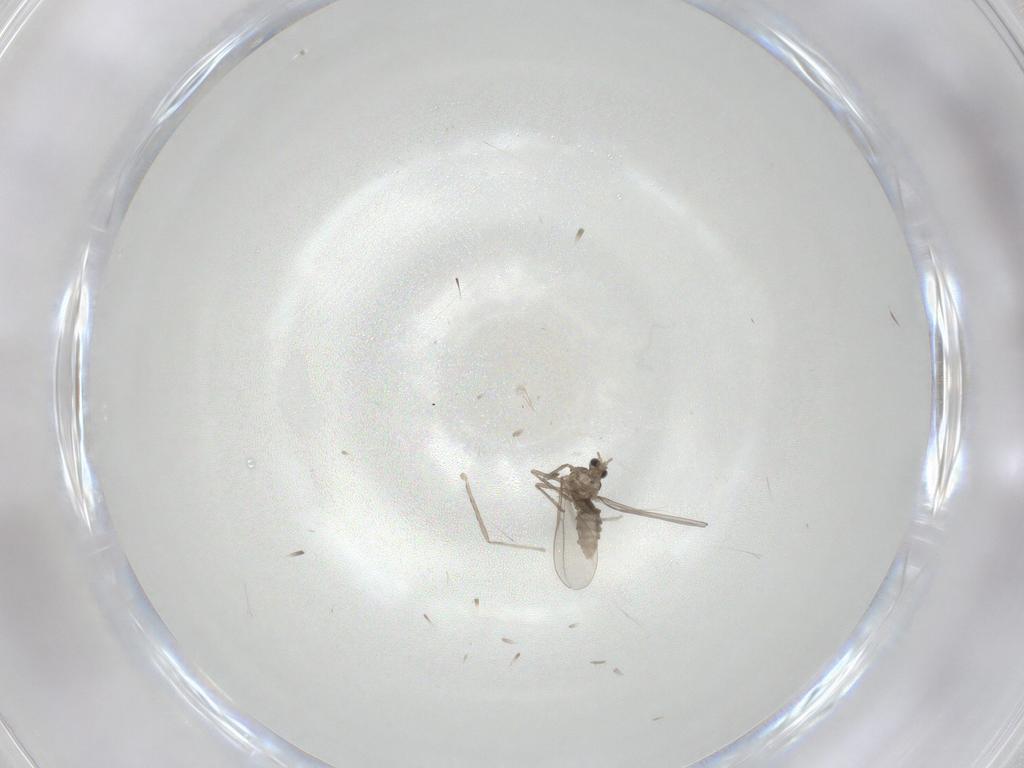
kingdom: Animalia
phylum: Arthropoda
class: Insecta
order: Diptera
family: Cecidomyiidae
